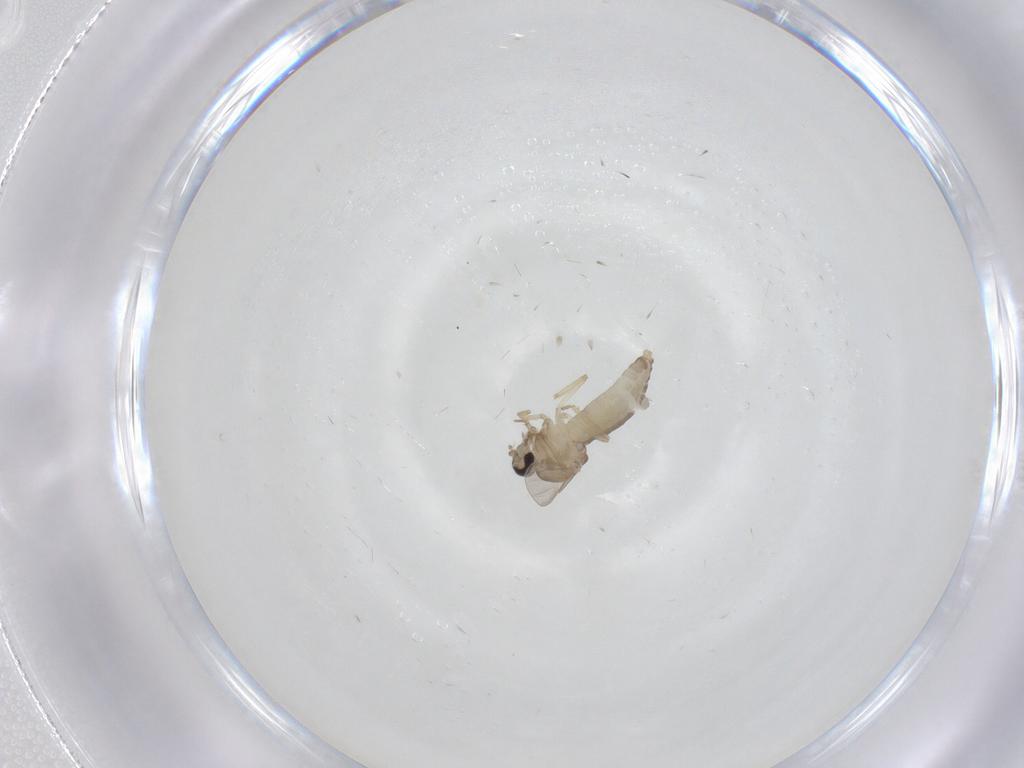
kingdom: Animalia
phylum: Arthropoda
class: Insecta
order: Diptera
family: Ceratopogonidae
